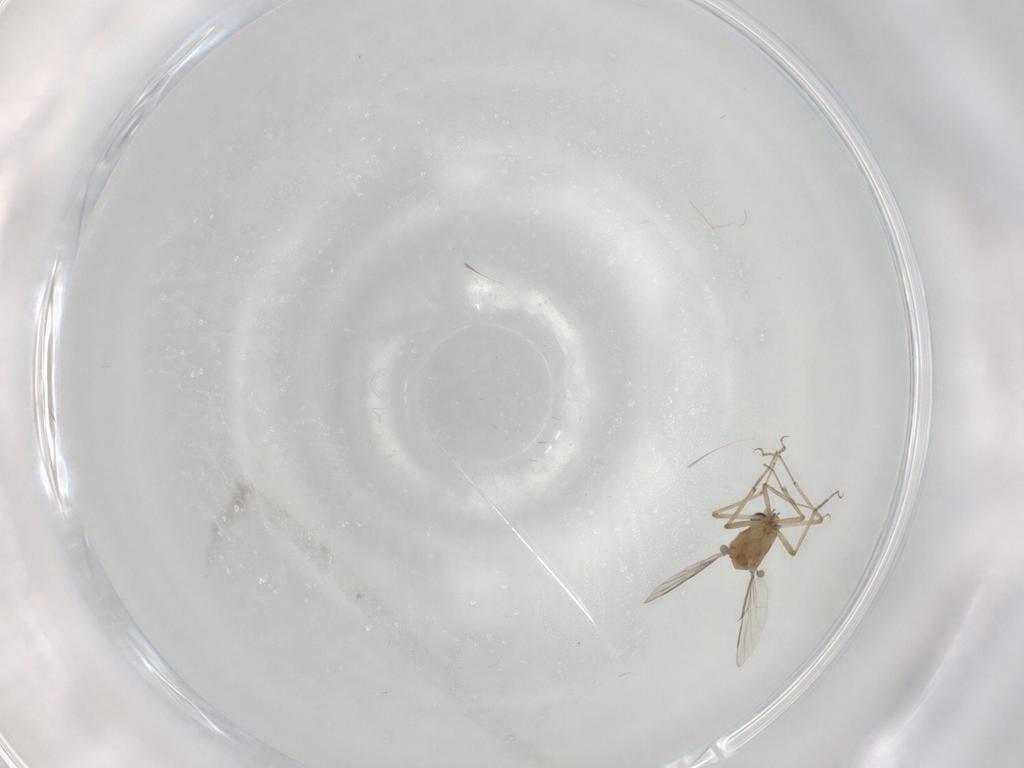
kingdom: Animalia
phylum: Arthropoda
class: Insecta
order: Diptera
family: Ceratopogonidae
